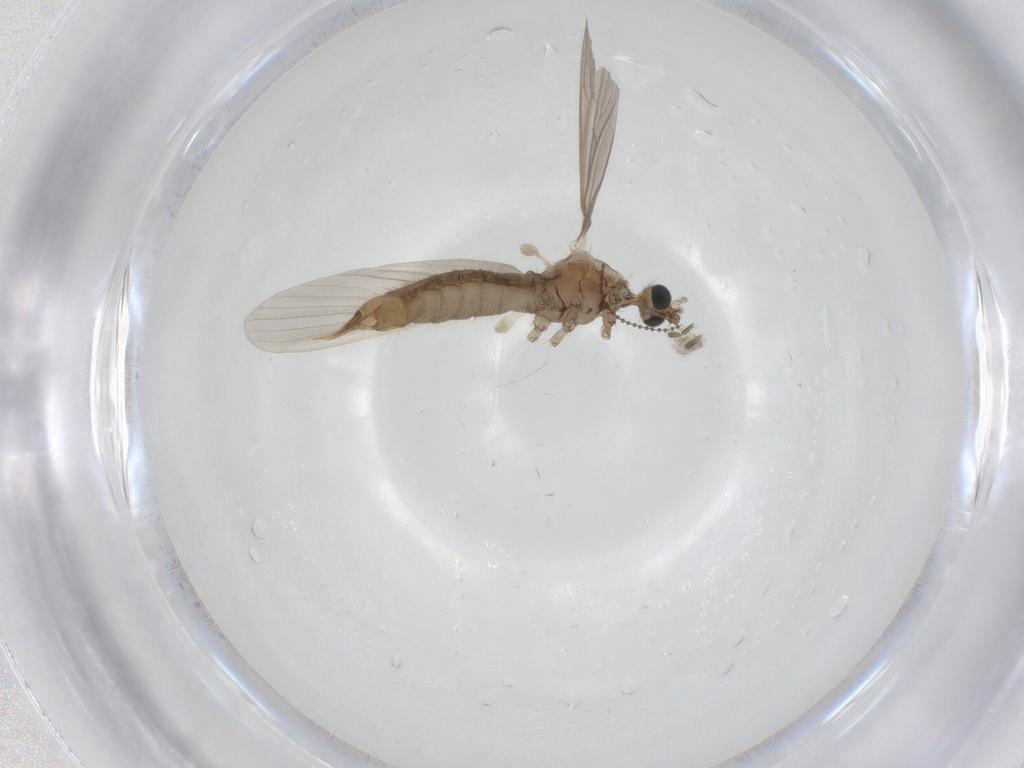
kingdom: Animalia
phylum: Arthropoda
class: Insecta
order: Diptera
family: Limoniidae
